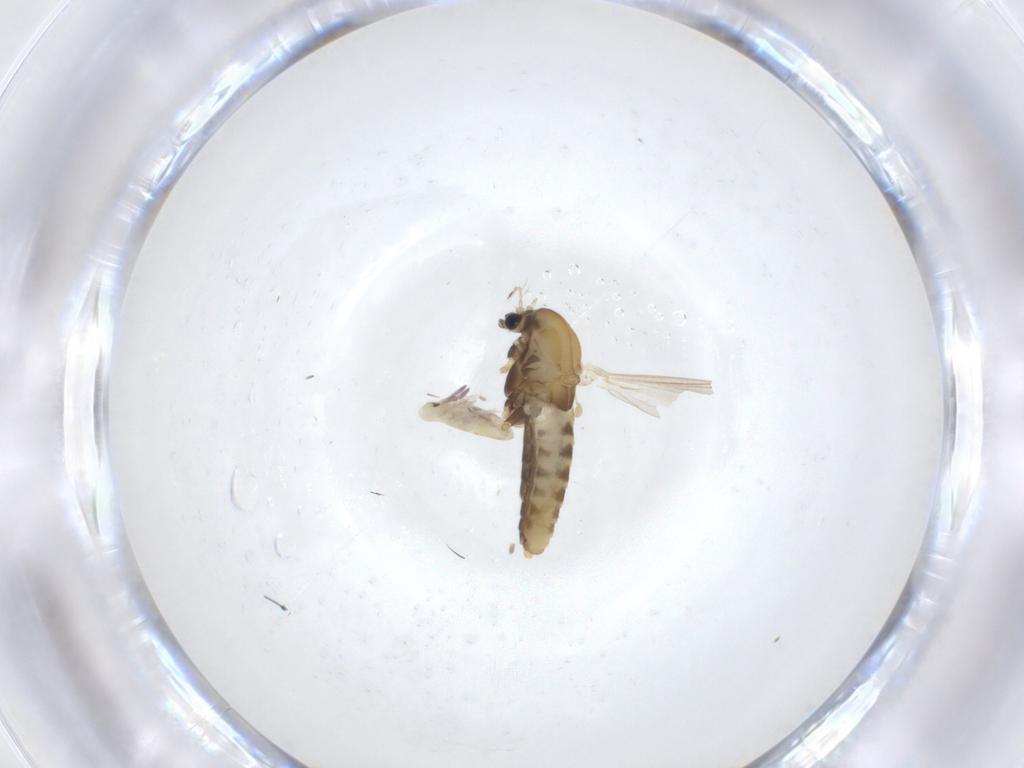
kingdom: Animalia
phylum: Arthropoda
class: Insecta
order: Diptera
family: Chironomidae
